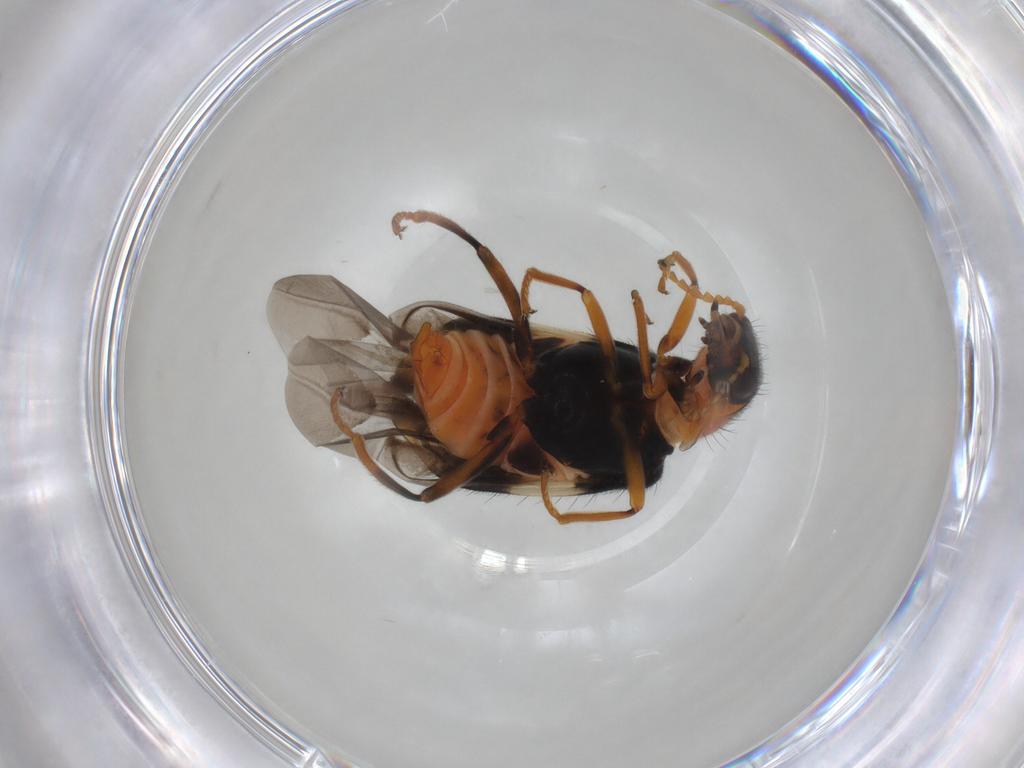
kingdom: Animalia
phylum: Arthropoda
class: Insecta
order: Coleoptera
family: Melyridae
